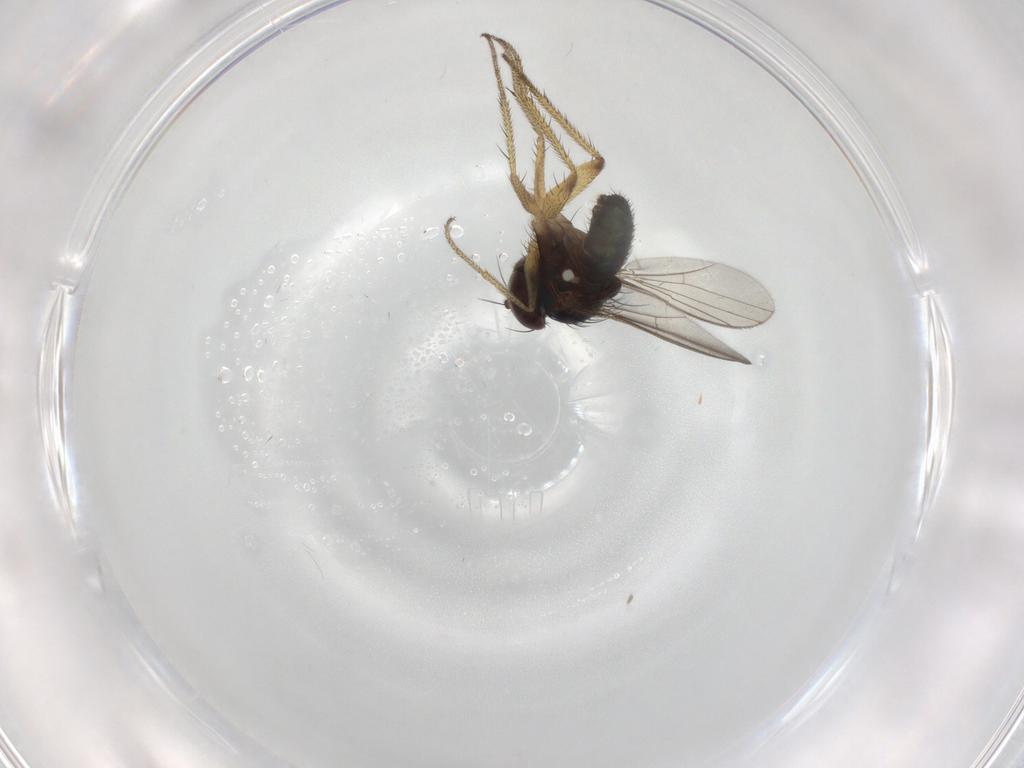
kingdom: Animalia
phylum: Arthropoda
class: Insecta
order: Diptera
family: Dolichopodidae
